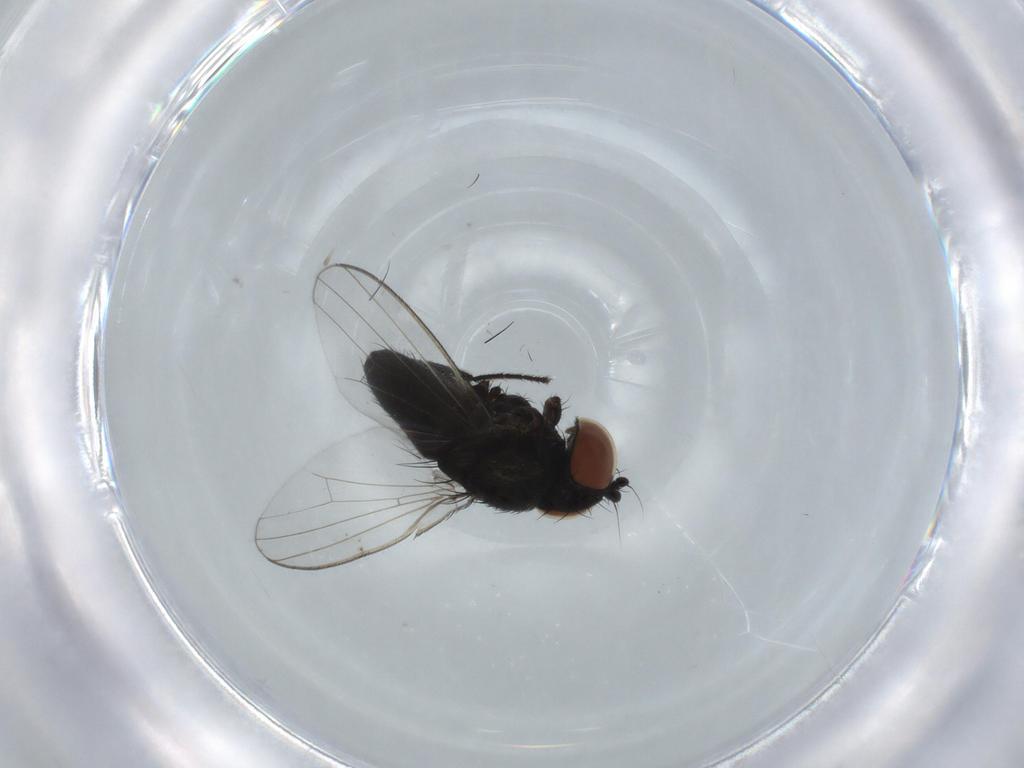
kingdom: Animalia
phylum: Arthropoda
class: Insecta
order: Diptera
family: Milichiidae
